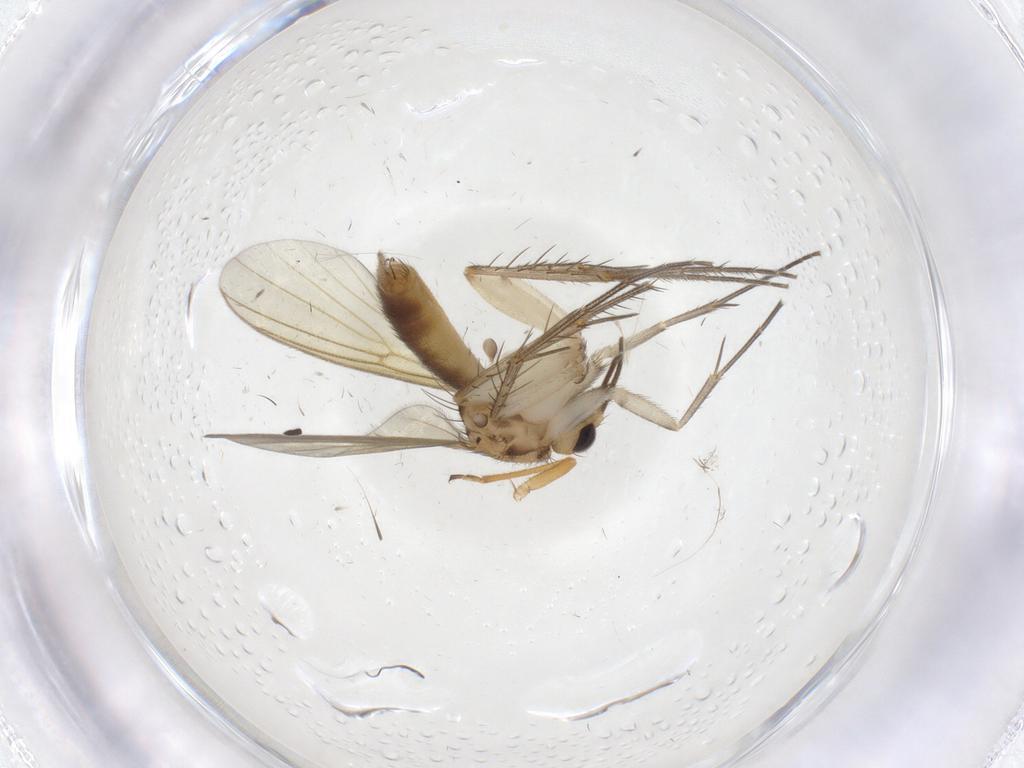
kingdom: Animalia
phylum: Arthropoda
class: Insecta
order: Diptera
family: Mycetophilidae
